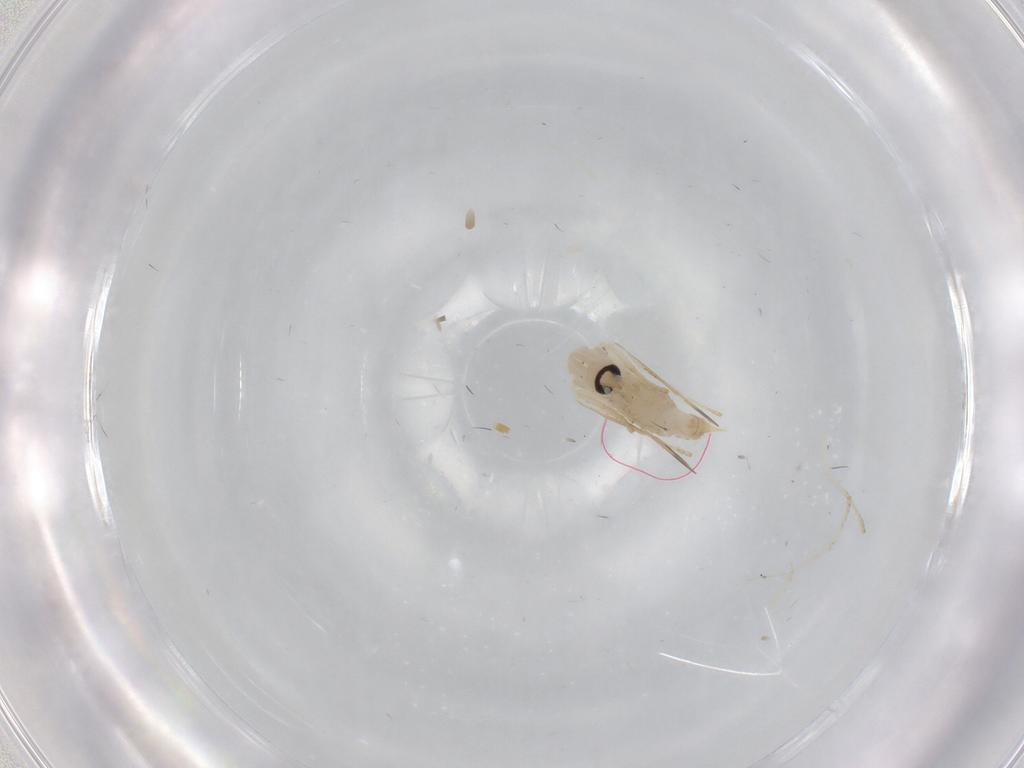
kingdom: Animalia
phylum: Arthropoda
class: Insecta
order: Diptera
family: Psychodidae
